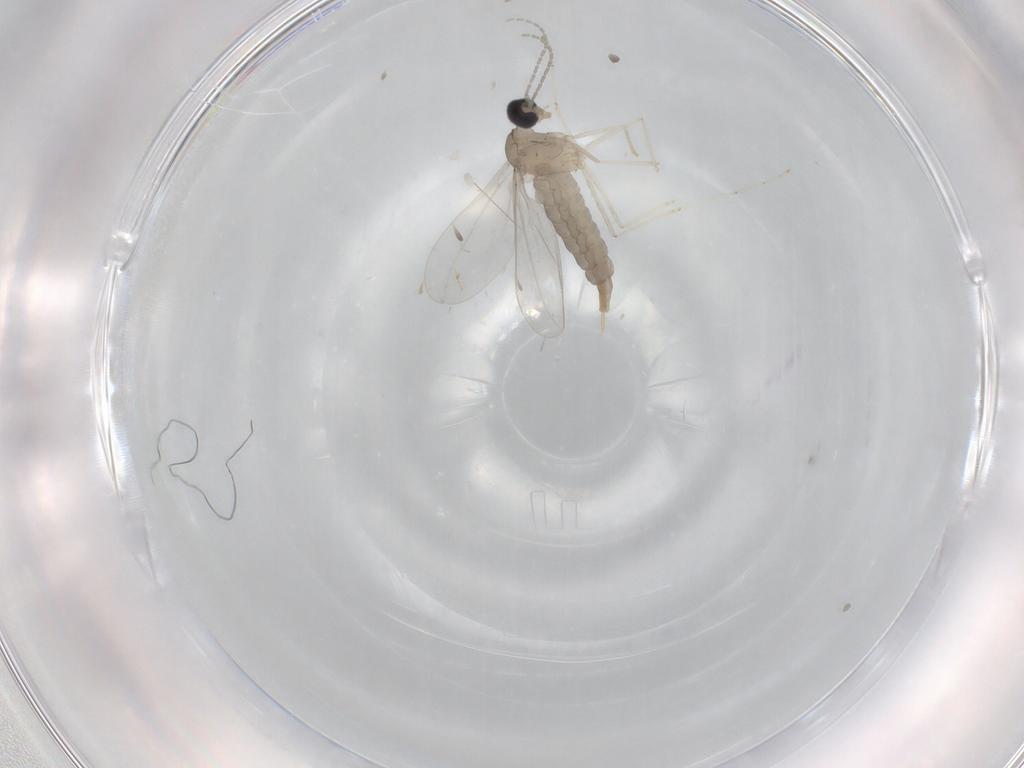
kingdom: Animalia
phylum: Arthropoda
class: Insecta
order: Diptera
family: Cecidomyiidae
